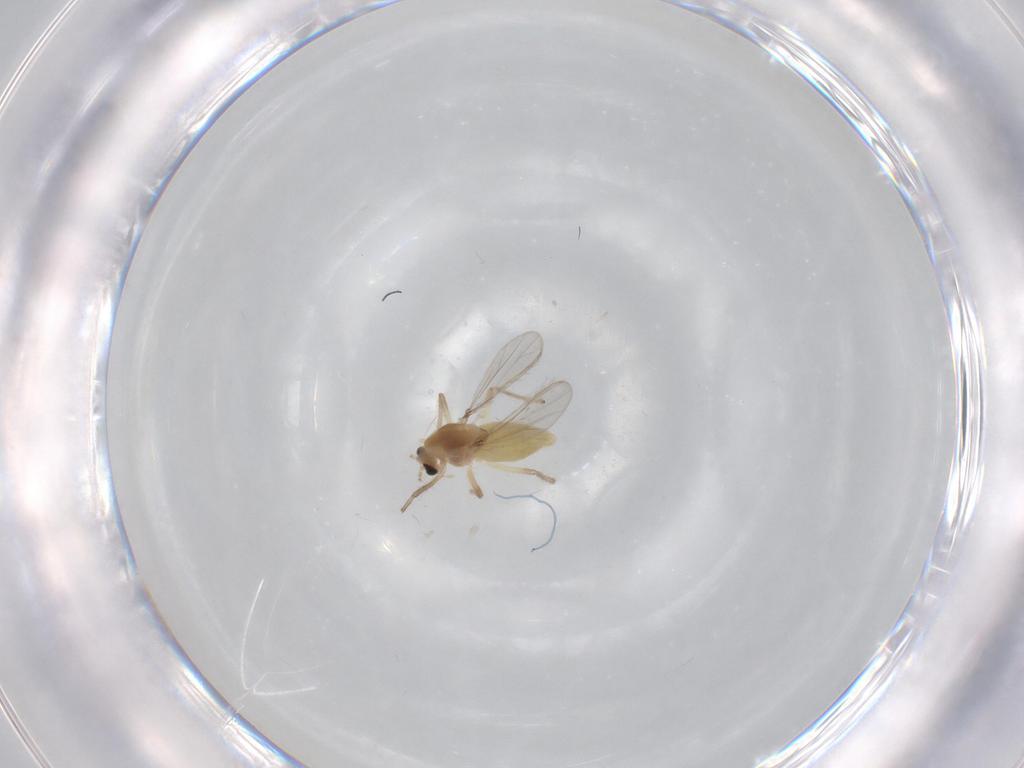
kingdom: Animalia
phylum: Arthropoda
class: Insecta
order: Diptera
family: Chironomidae
